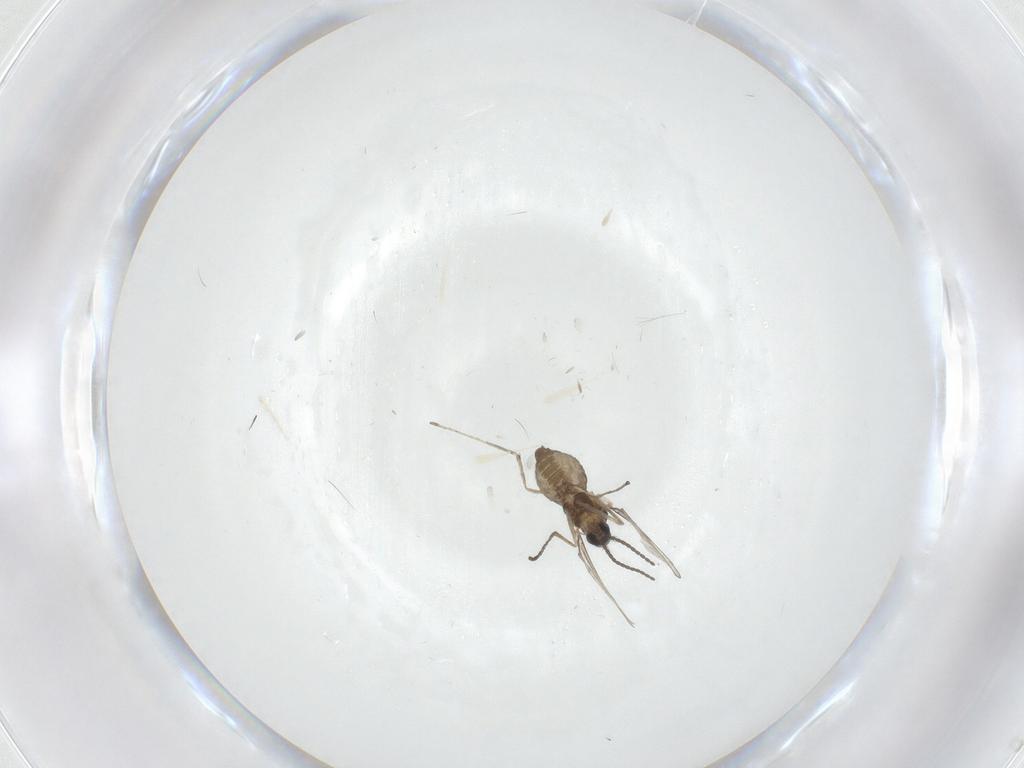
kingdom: Animalia
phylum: Arthropoda
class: Insecta
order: Diptera
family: Cecidomyiidae
